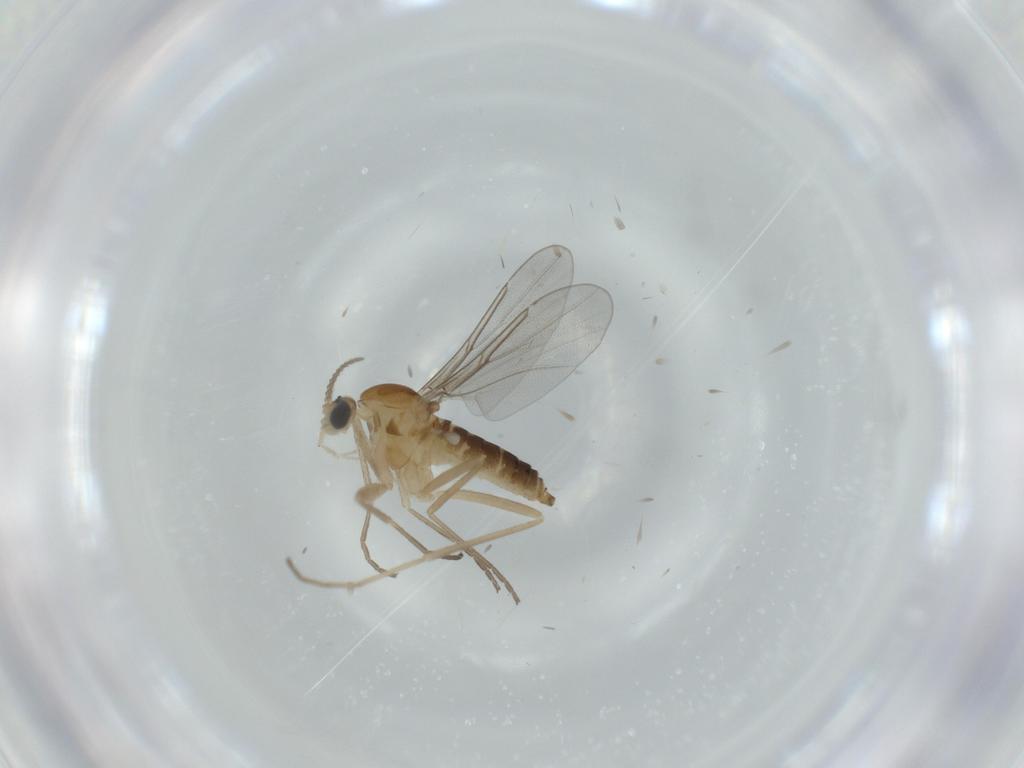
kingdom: Animalia
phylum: Arthropoda
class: Insecta
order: Diptera
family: Cecidomyiidae
